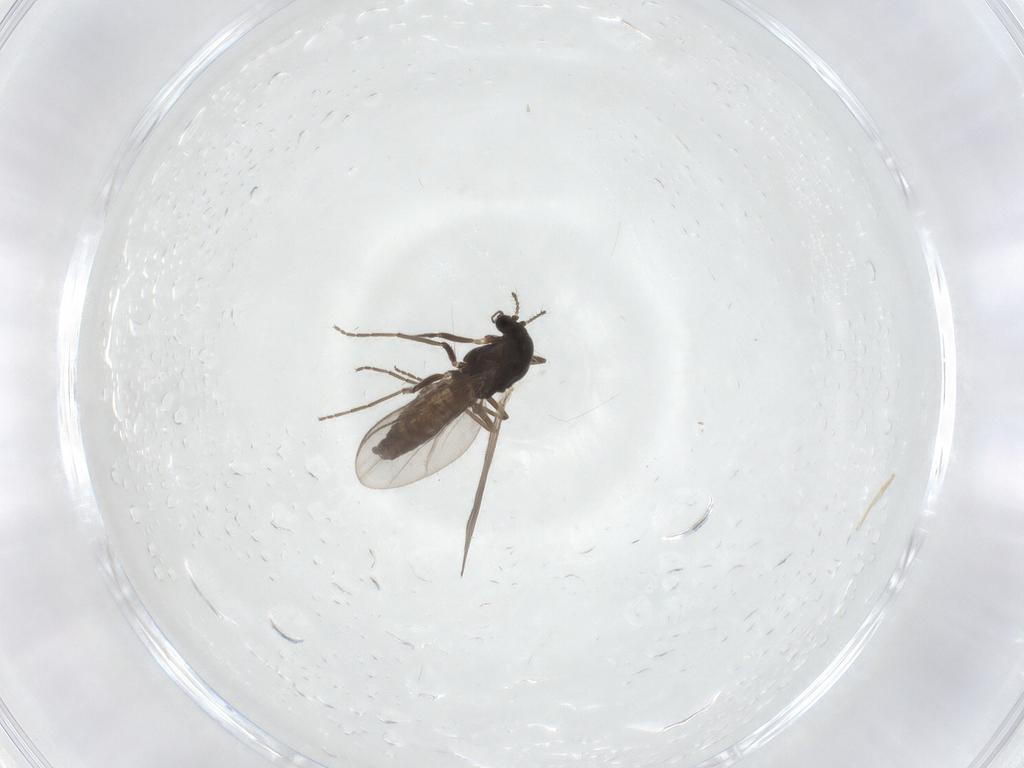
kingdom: Animalia
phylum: Arthropoda
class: Insecta
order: Diptera
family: Chironomidae
